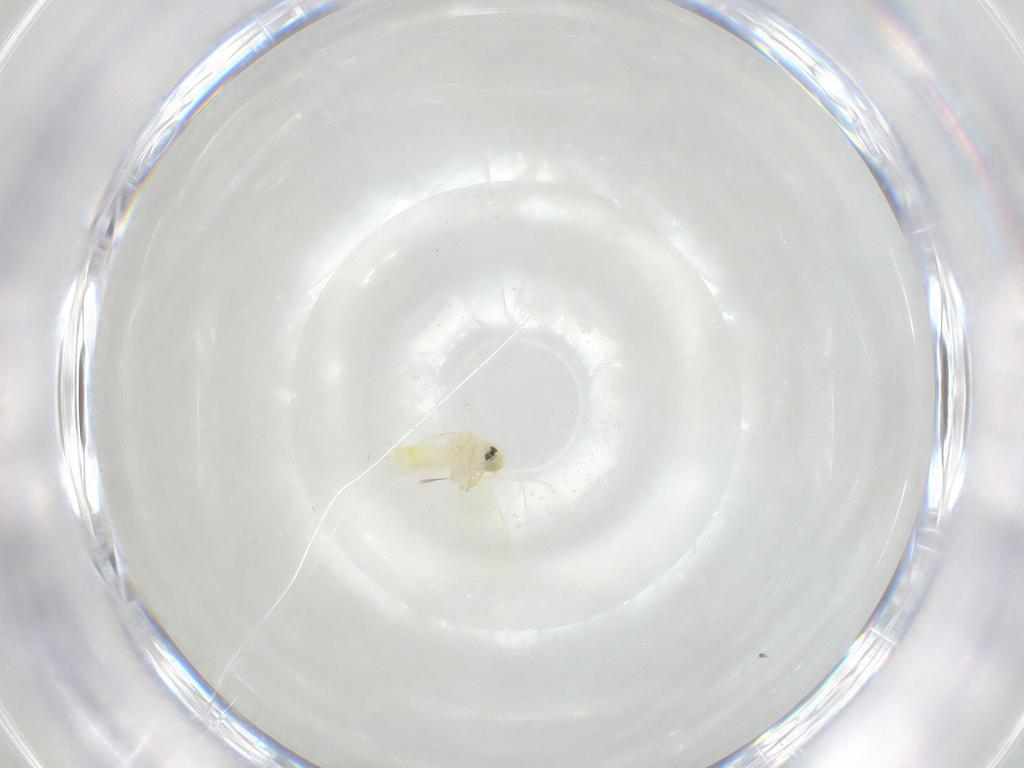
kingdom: Animalia
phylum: Arthropoda
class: Insecta
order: Hemiptera
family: Aleyrodidae
